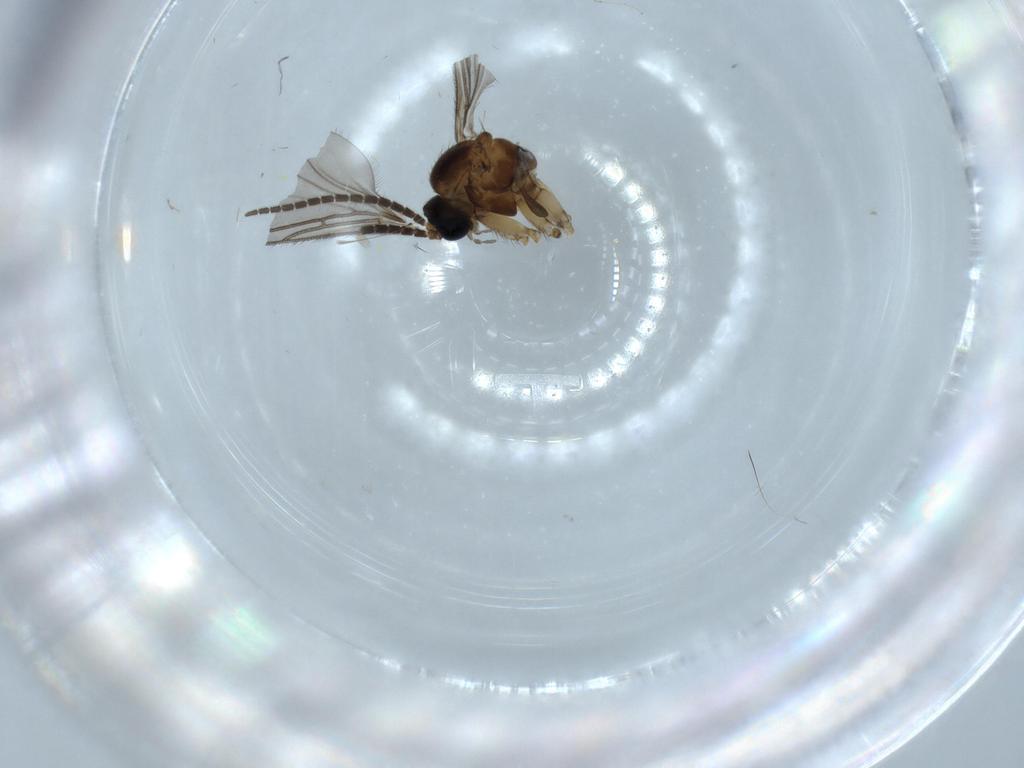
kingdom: Animalia
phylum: Arthropoda
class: Insecta
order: Diptera
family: Sciaridae
